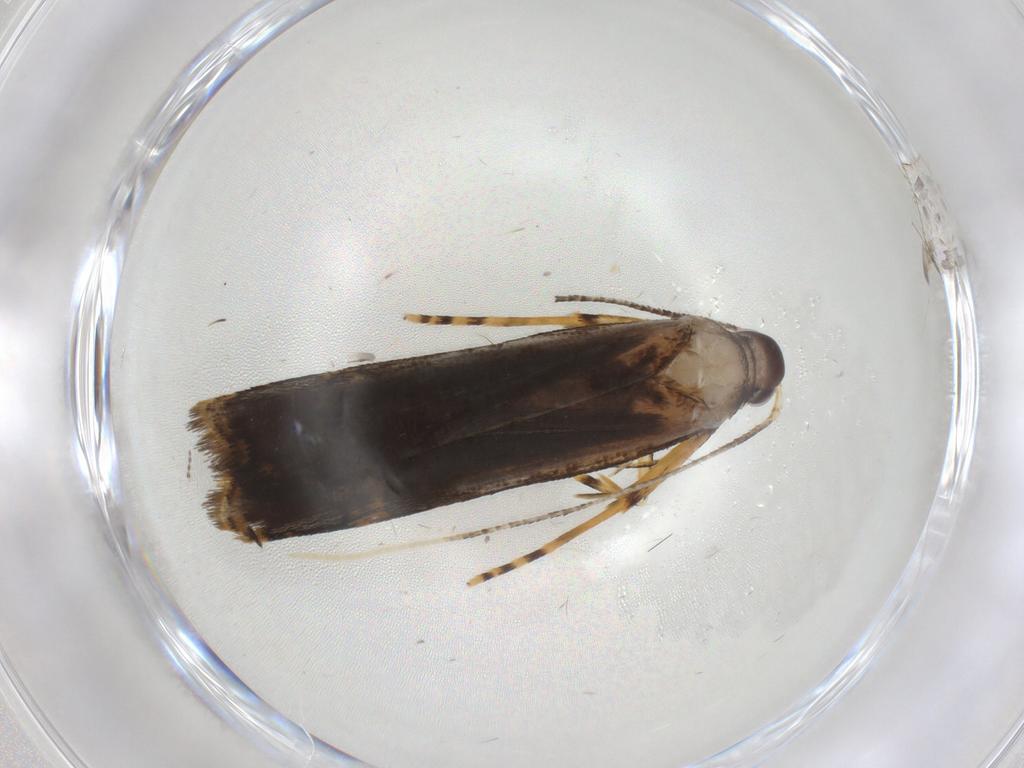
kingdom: Animalia
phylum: Arthropoda
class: Insecta
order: Lepidoptera
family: Cosmopterigidae
